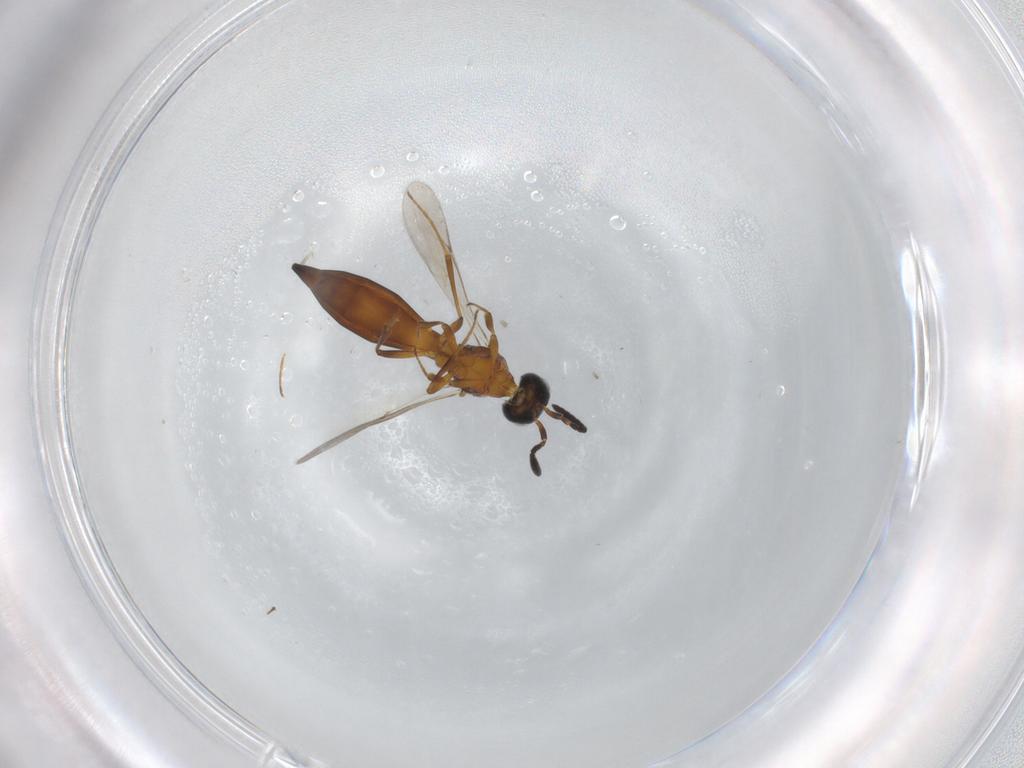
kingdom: Animalia
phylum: Arthropoda
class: Insecta
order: Hymenoptera
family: Scelionidae
